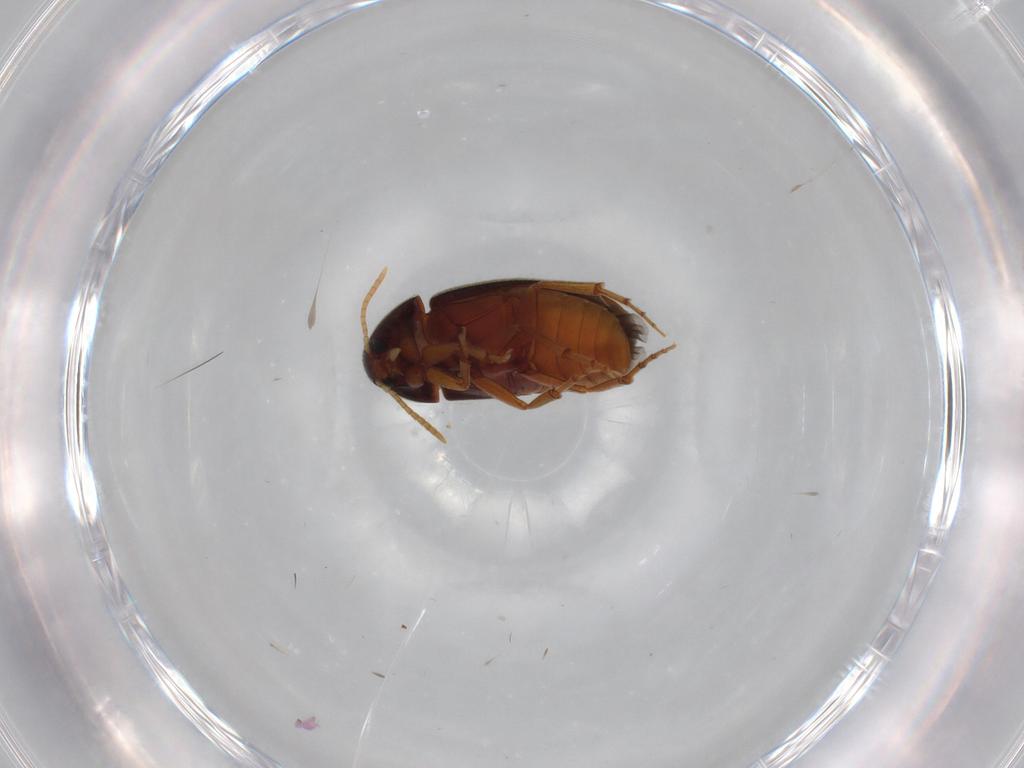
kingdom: Animalia
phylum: Arthropoda
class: Insecta
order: Coleoptera
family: Scraptiidae
